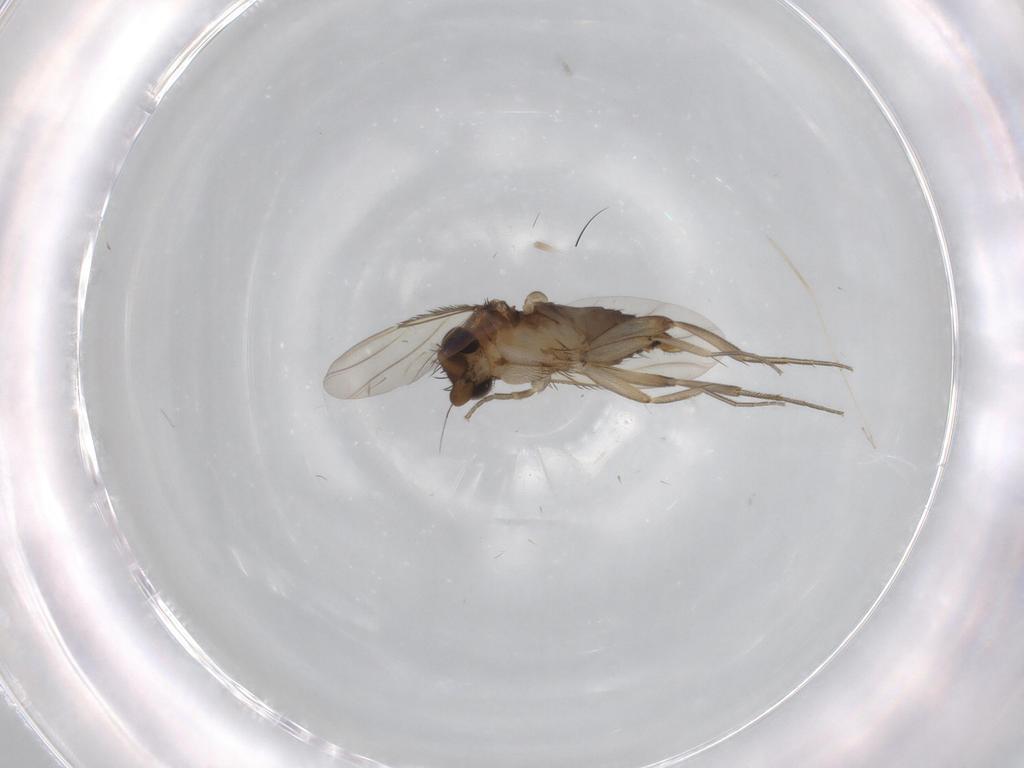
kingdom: Animalia
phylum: Arthropoda
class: Insecta
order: Diptera
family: Phoridae
